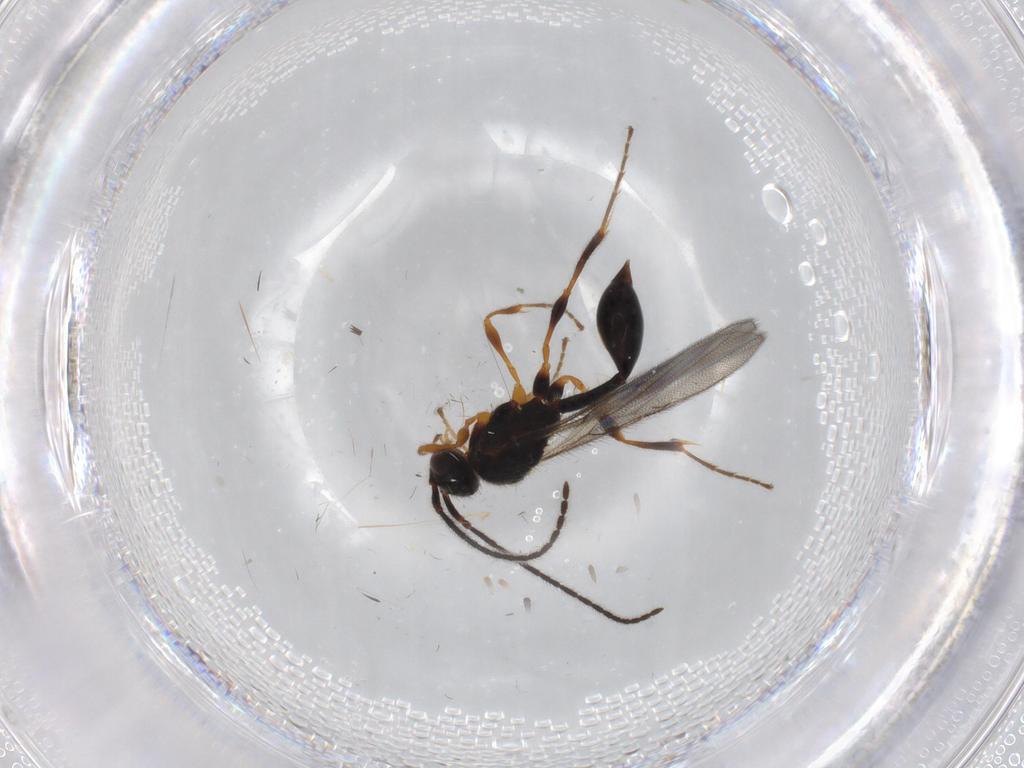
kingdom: Animalia
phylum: Arthropoda
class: Insecta
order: Hymenoptera
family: Diapriidae
